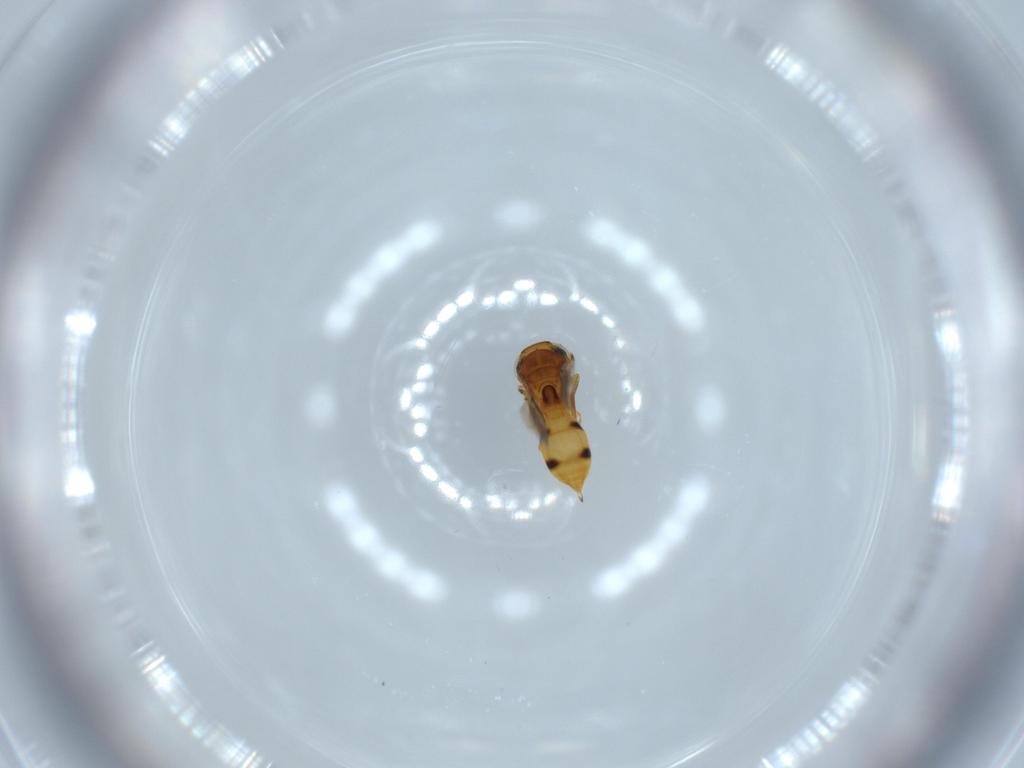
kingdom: Animalia
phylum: Arthropoda
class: Insecta
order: Hymenoptera
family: Scelionidae
